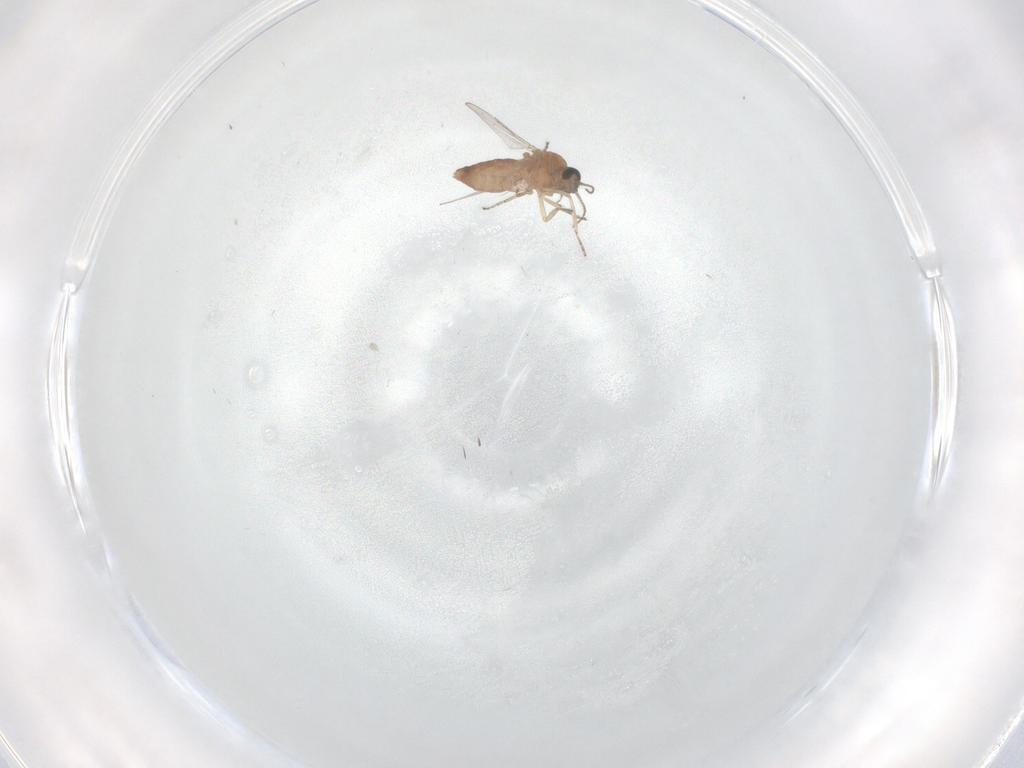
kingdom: Animalia
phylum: Arthropoda
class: Insecta
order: Diptera
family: Ceratopogonidae
